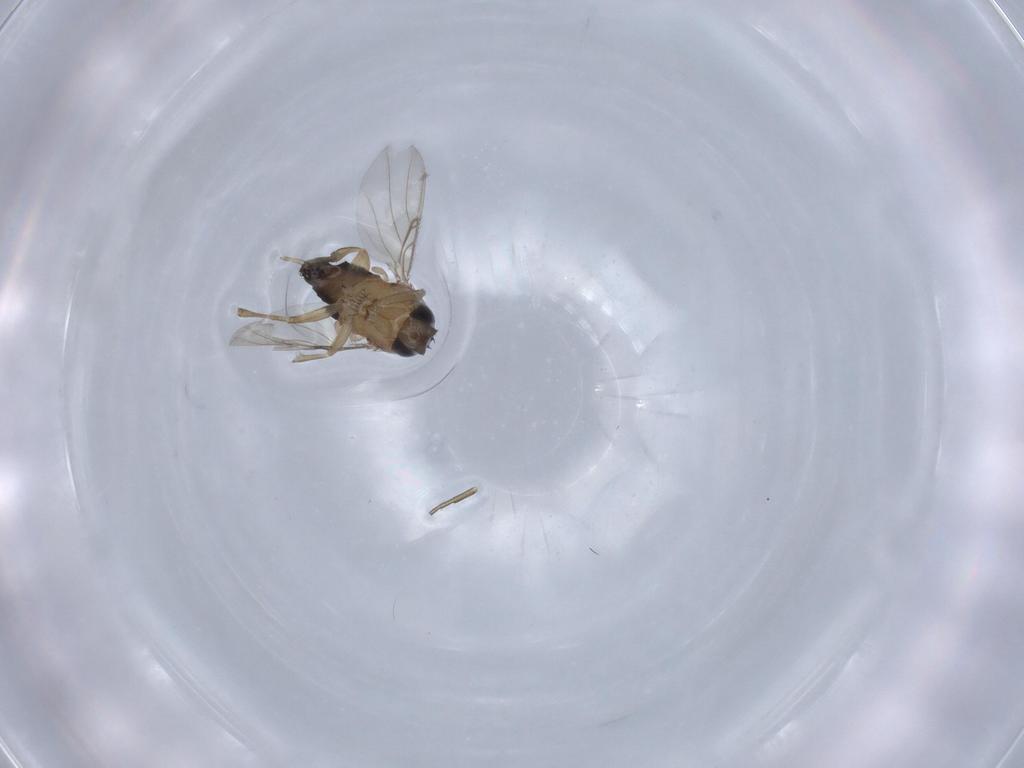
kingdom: Animalia
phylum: Arthropoda
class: Insecta
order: Diptera
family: Phoridae
